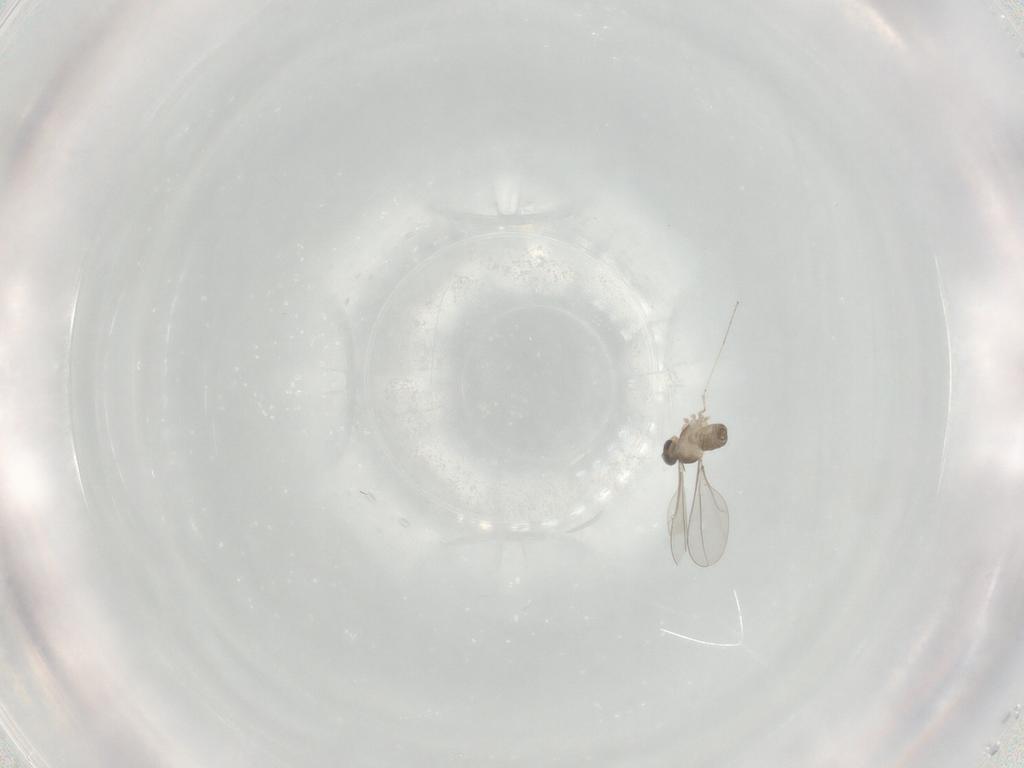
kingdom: Animalia
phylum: Arthropoda
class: Insecta
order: Diptera
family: Cecidomyiidae
